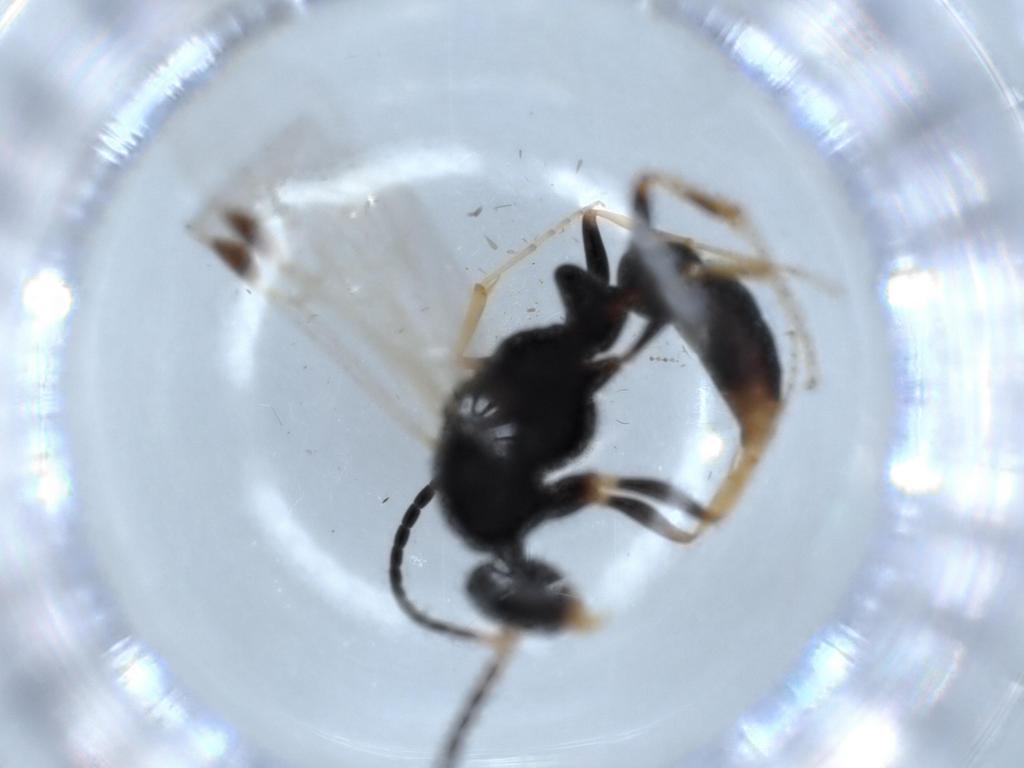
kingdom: Animalia
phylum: Arthropoda
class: Insecta
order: Hymenoptera
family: Formicidae
